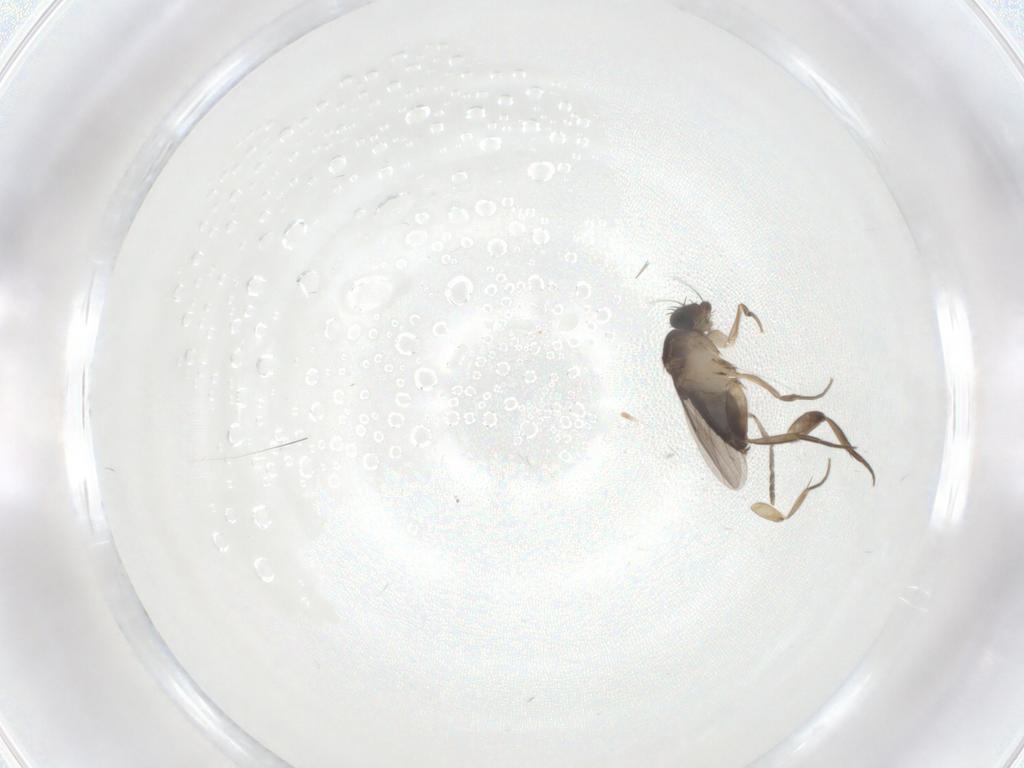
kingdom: Animalia
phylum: Arthropoda
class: Insecta
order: Diptera
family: Phoridae
